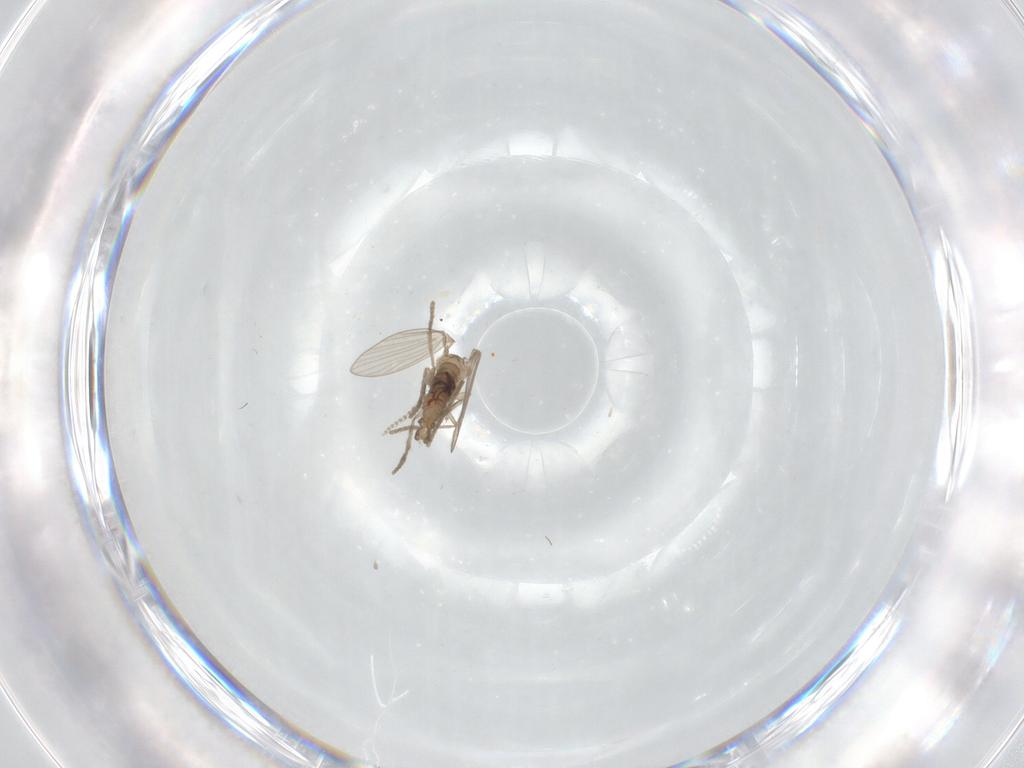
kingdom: Animalia
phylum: Arthropoda
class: Insecta
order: Diptera
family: Psychodidae
